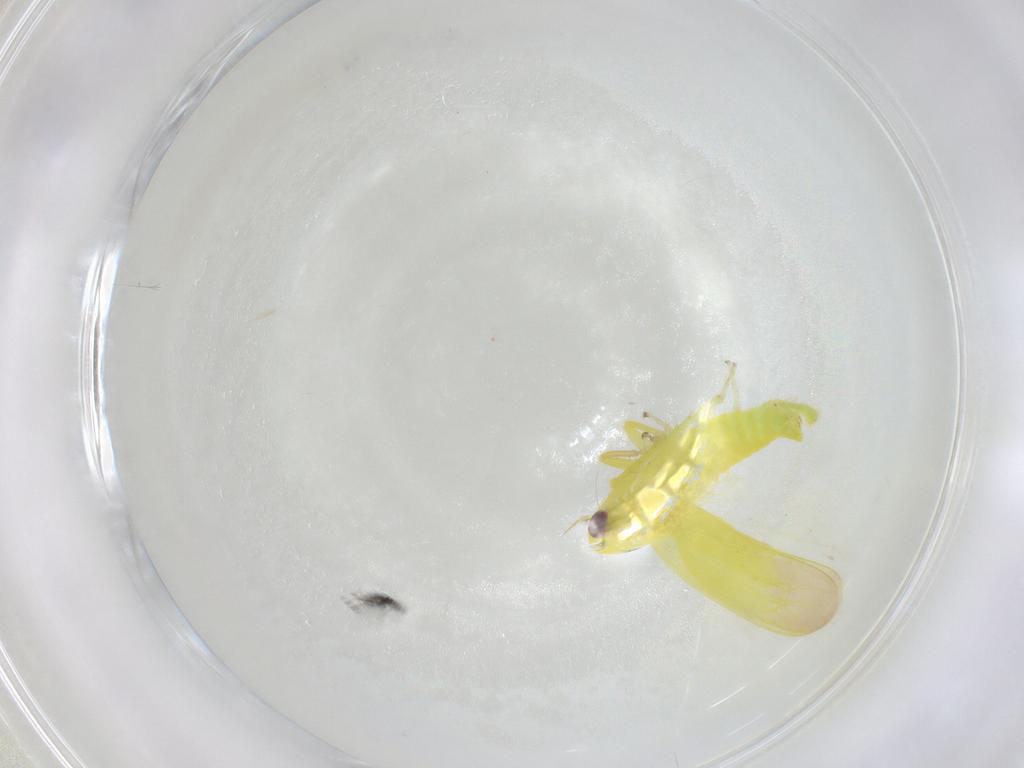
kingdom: Animalia
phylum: Arthropoda
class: Insecta
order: Hemiptera
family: Cicadellidae
